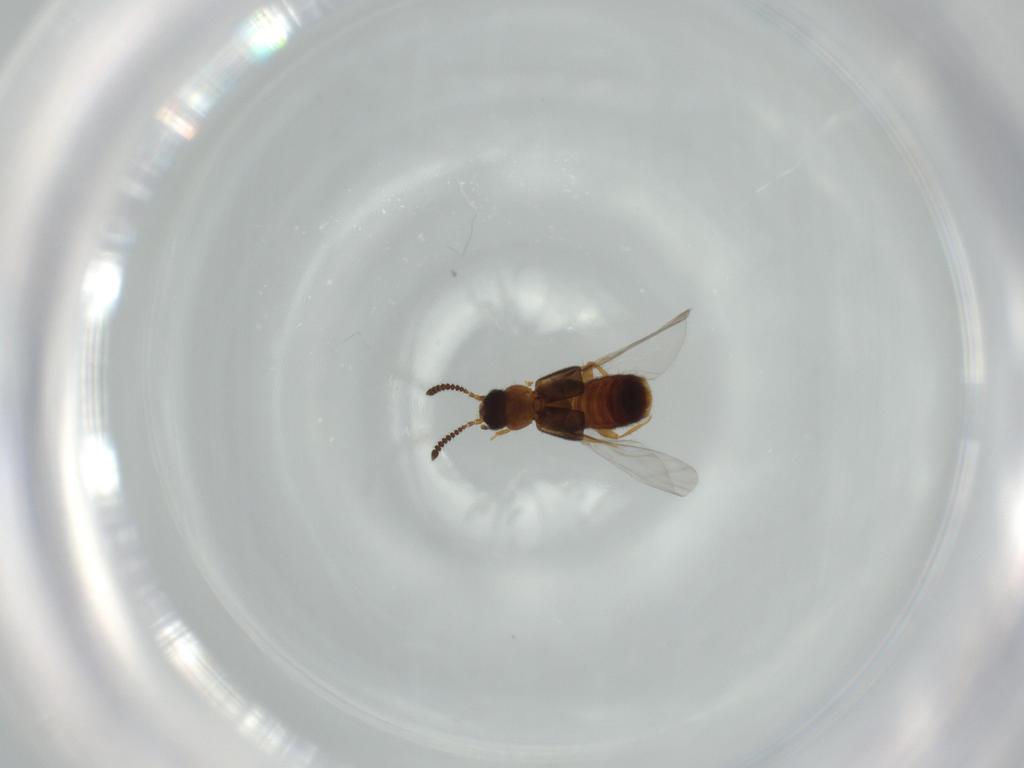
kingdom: Animalia
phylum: Arthropoda
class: Insecta
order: Coleoptera
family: Staphylinidae
